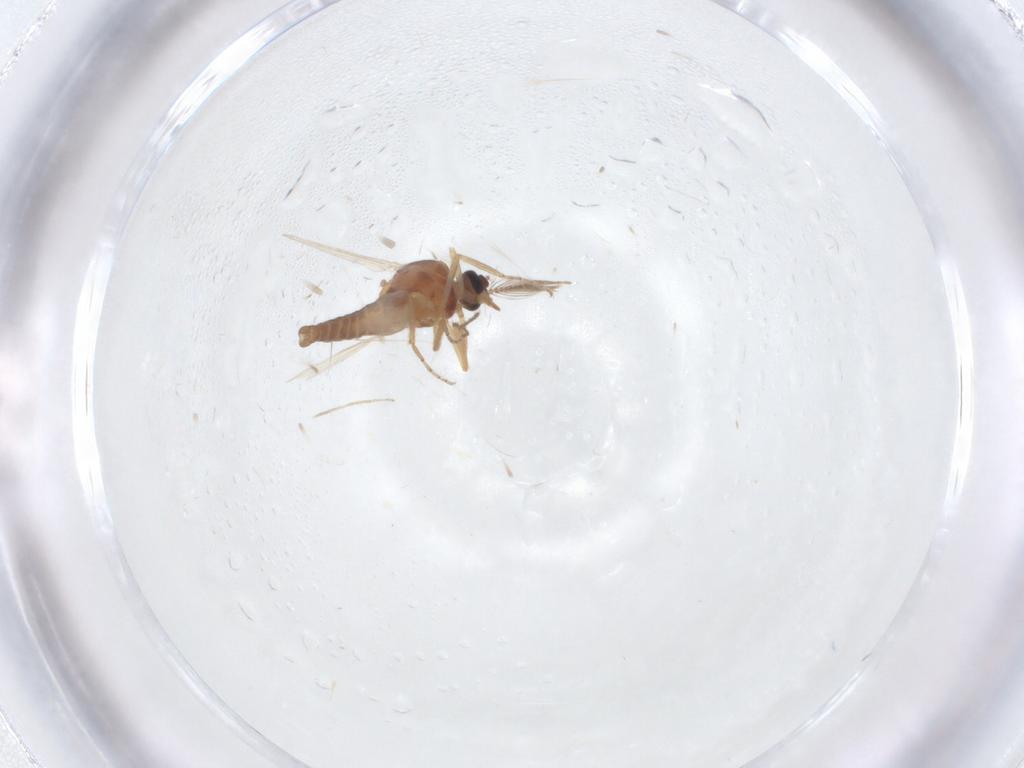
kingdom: Animalia
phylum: Arthropoda
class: Insecta
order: Diptera
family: Ceratopogonidae
